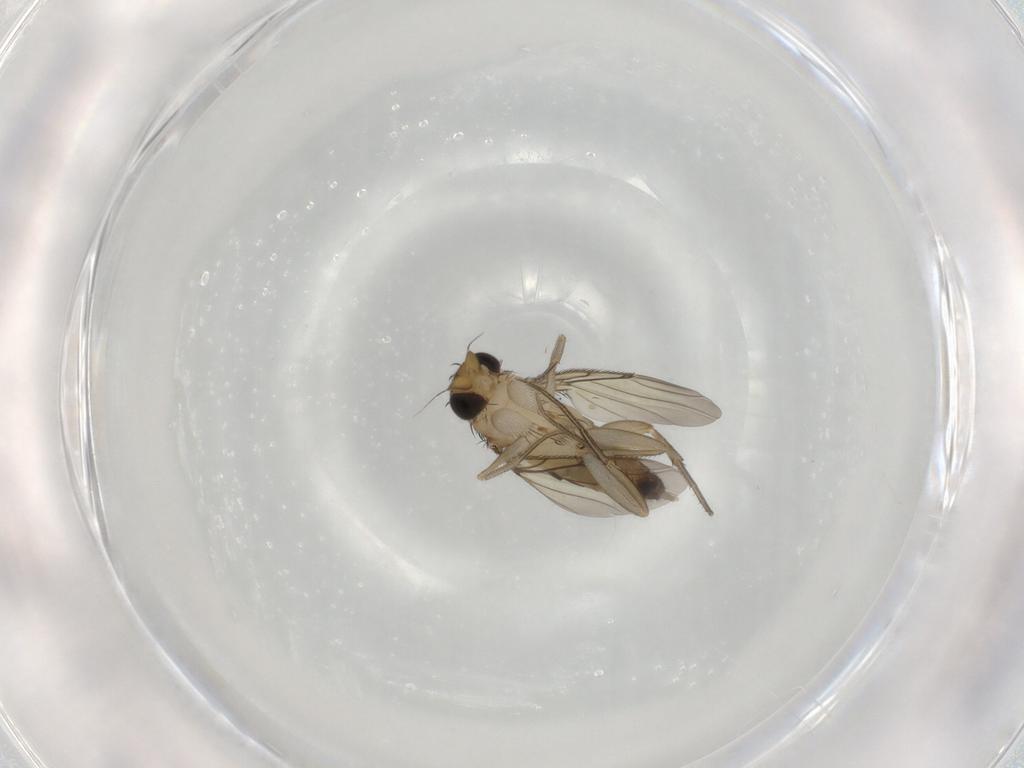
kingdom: Animalia
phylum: Arthropoda
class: Insecta
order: Diptera
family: Phoridae
